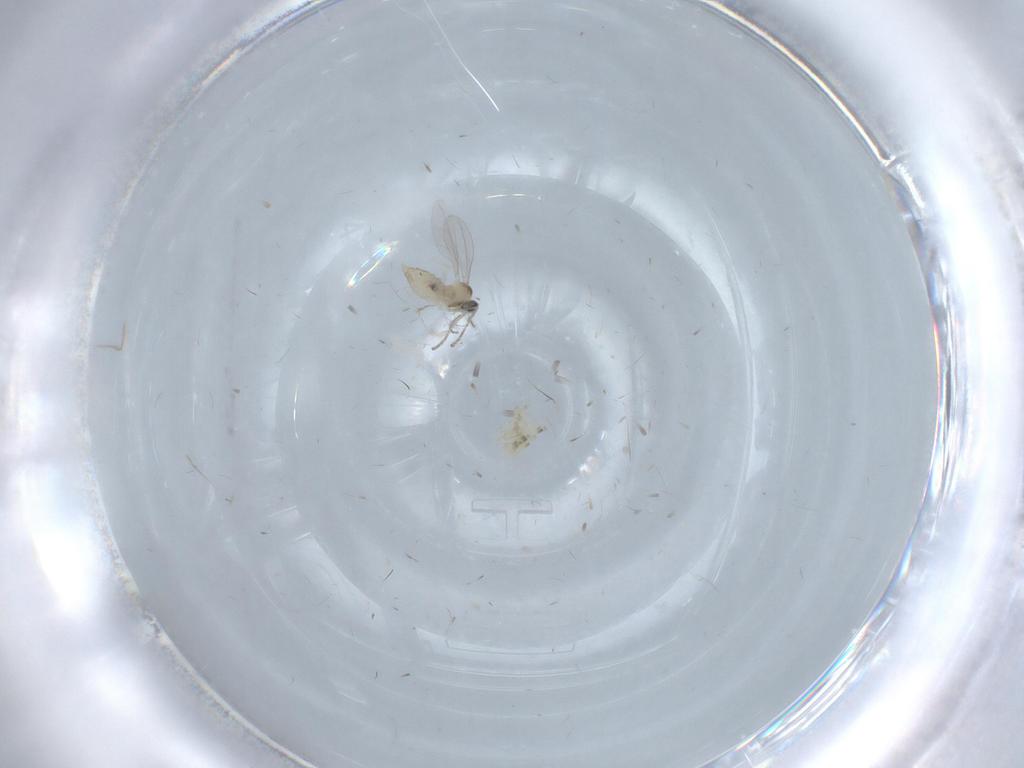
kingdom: Animalia
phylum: Arthropoda
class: Insecta
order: Diptera
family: Cecidomyiidae
